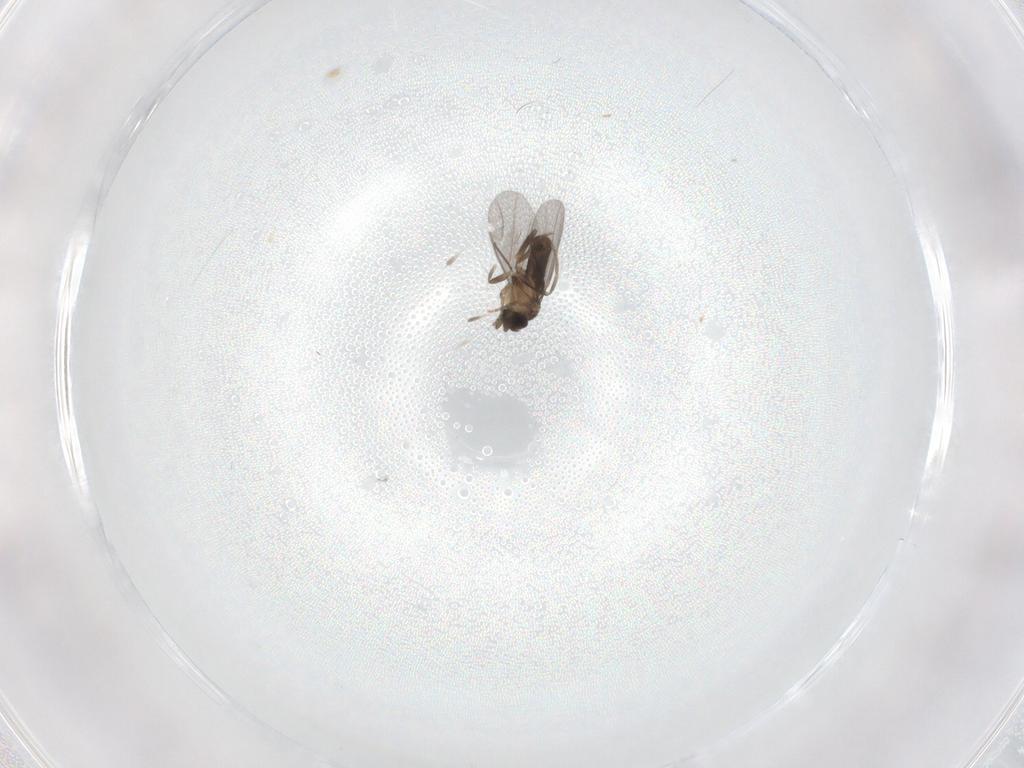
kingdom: Animalia
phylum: Arthropoda
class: Insecta
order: Diptera
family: Chironomidae
